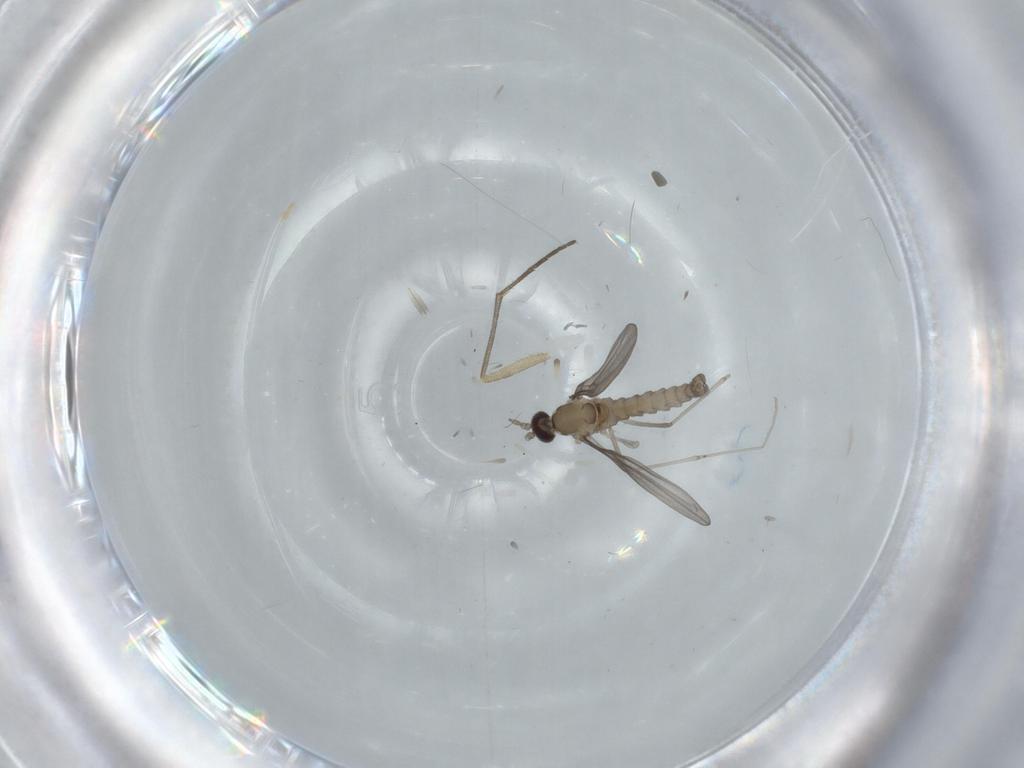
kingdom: Animalia
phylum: Arthropoda
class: Insecta
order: Diptera
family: Cecidomyiidae
